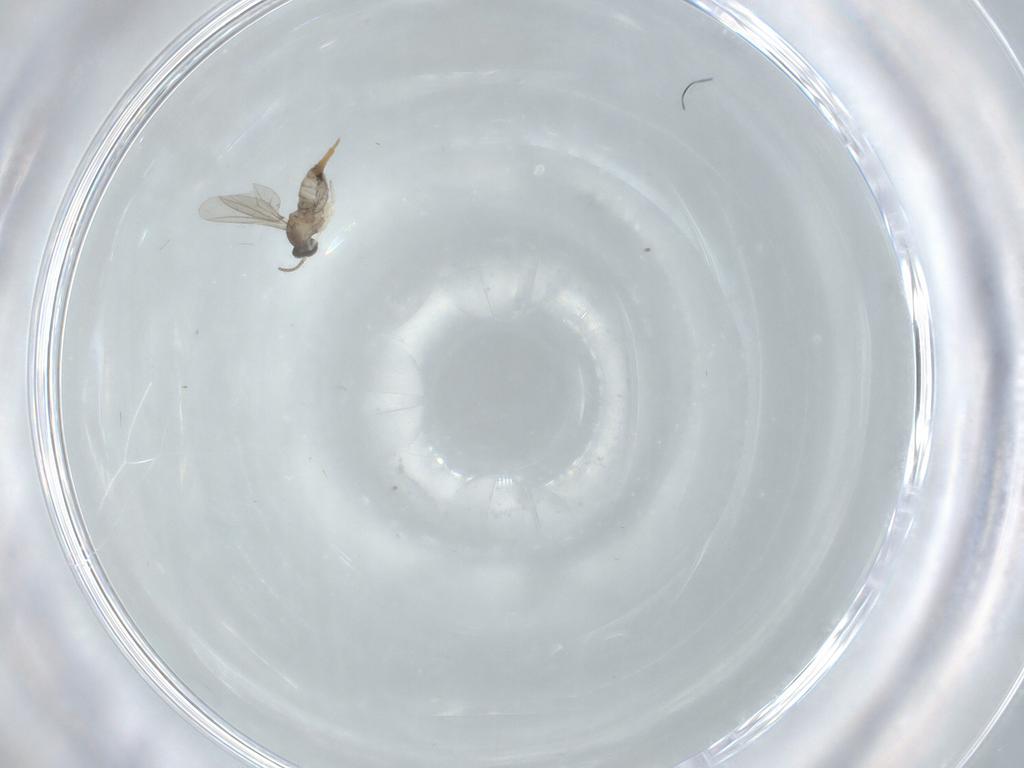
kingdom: Animalia
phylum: Arthropoda
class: Insecta
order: Diptera
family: Cecidomyiidae
